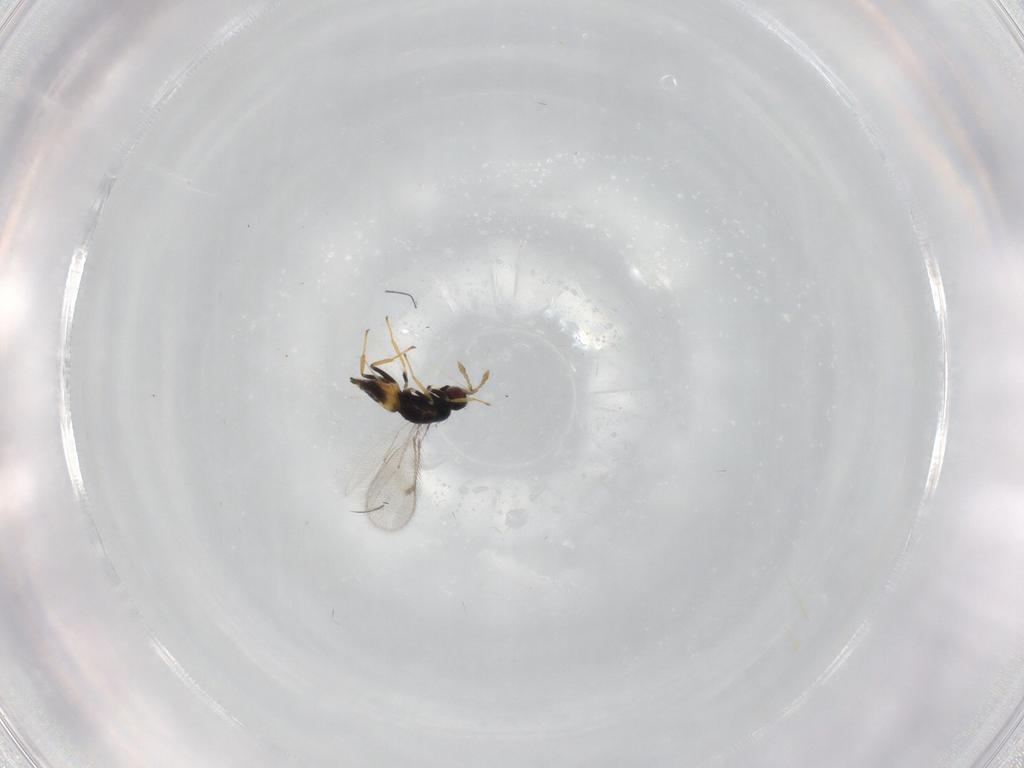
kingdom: Animalia
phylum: Arthropoda
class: Insecta
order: Hymenoptera
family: Eulophidae
